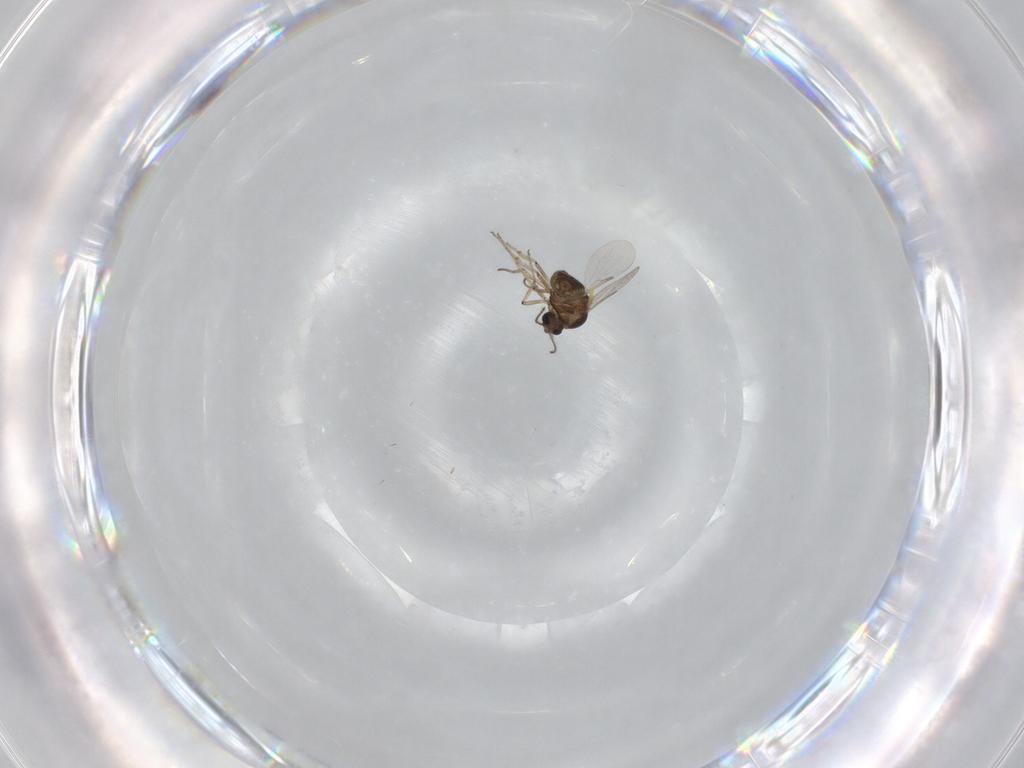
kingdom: Animalia
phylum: Arthropoda
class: Insecta
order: Diptera
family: Ceratopogonidae
